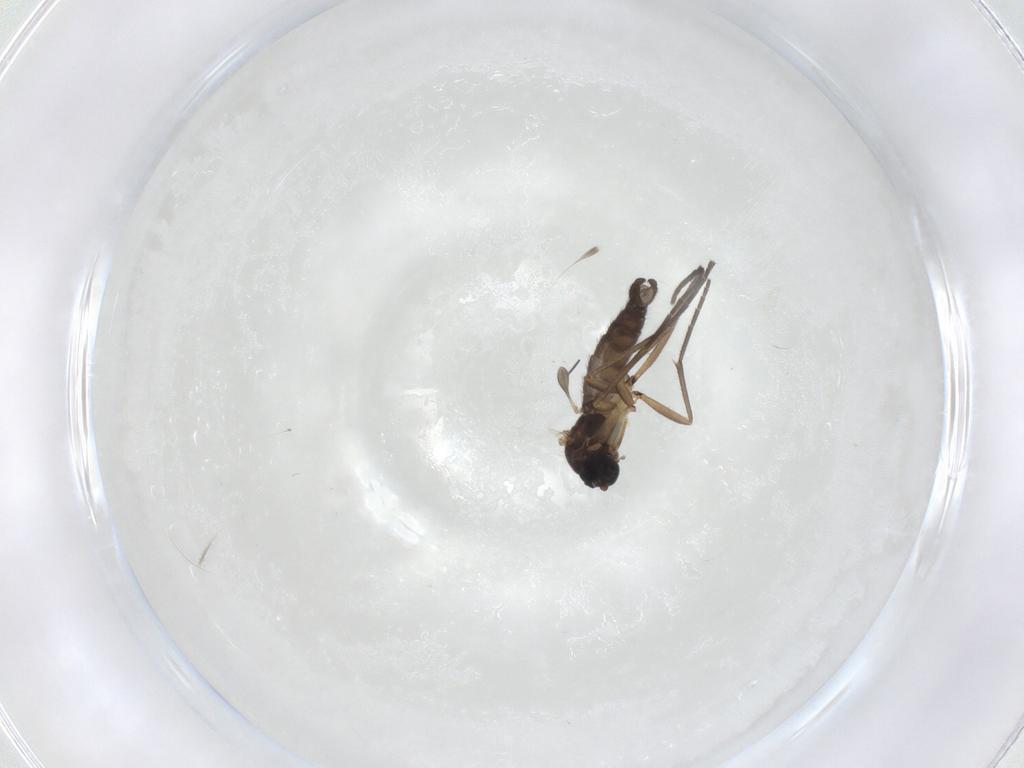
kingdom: Animalia
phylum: Arthropoda
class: Insecta
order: Diptera
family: Sciaridae
